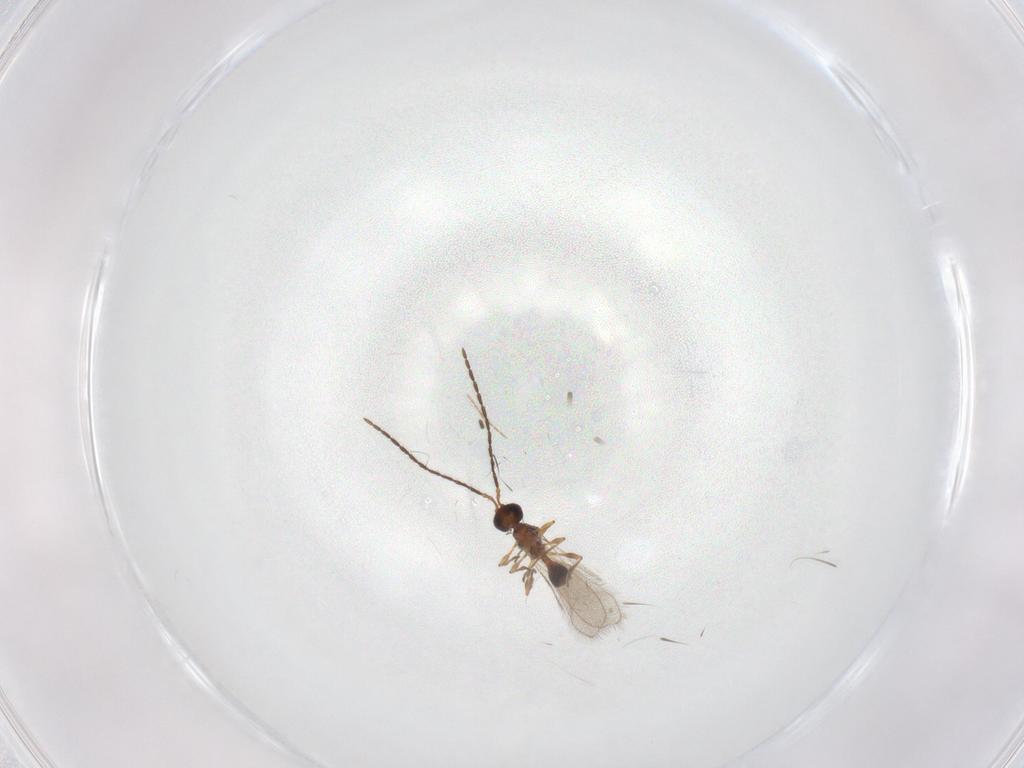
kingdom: Animalia
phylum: Arthropoda
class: Insecta
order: Hymenoptera
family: Diapriidae
